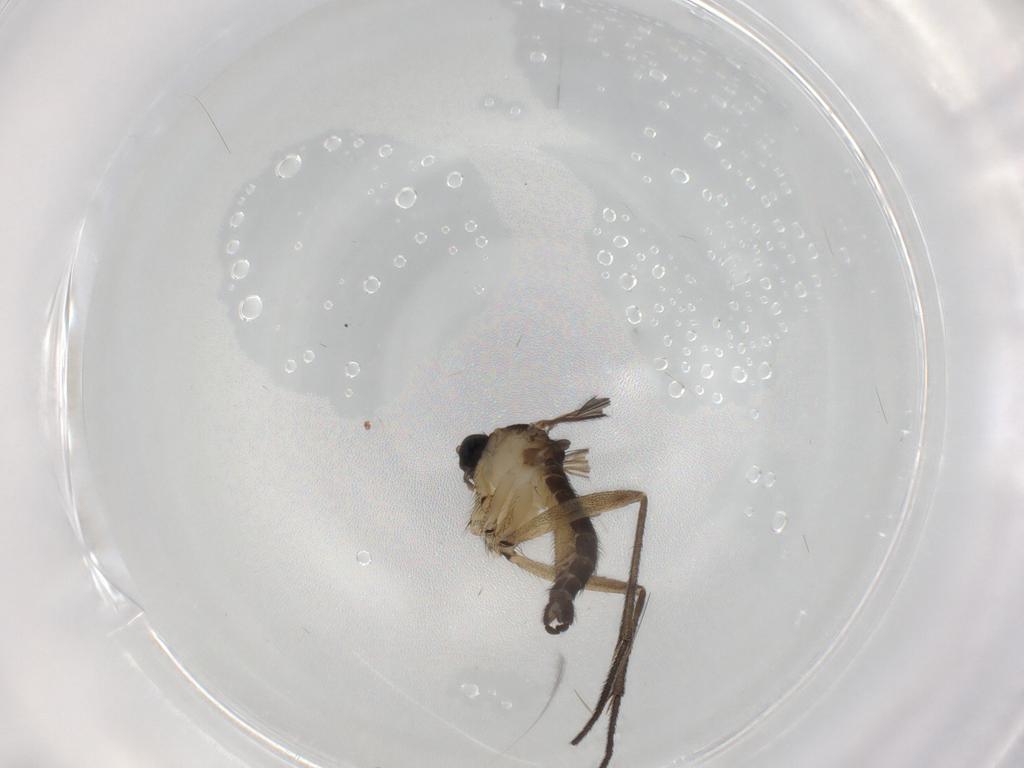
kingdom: Animalia
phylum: Arthropoda
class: Insecta
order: Diptera
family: Sciaridae
